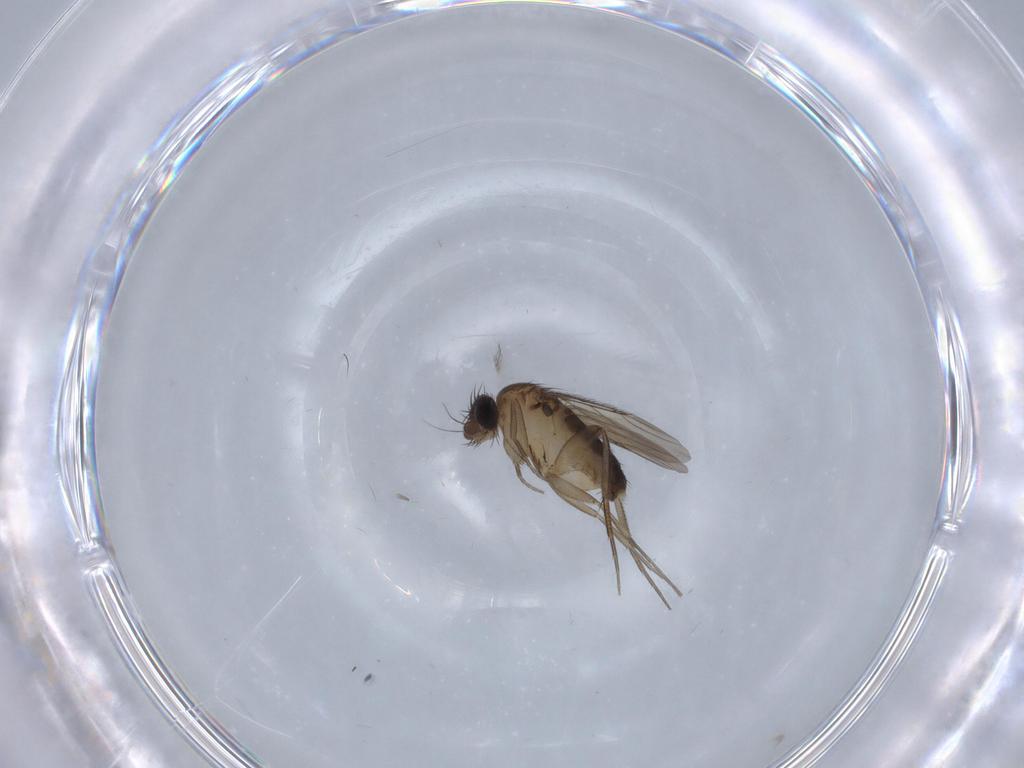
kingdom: Animalia
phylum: Arthropoda
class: Insecta
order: Diptera
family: Phoridae
